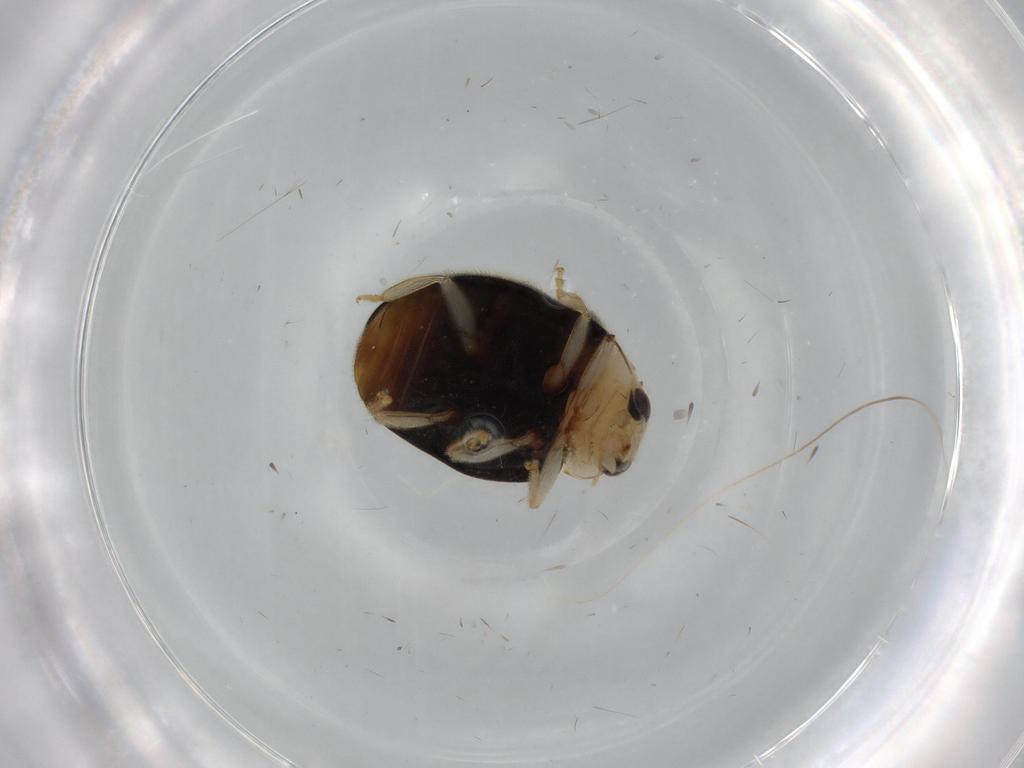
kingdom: Animalia
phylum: Arthropoda
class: Insecta
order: Coleoptera
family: Coccinellidae
